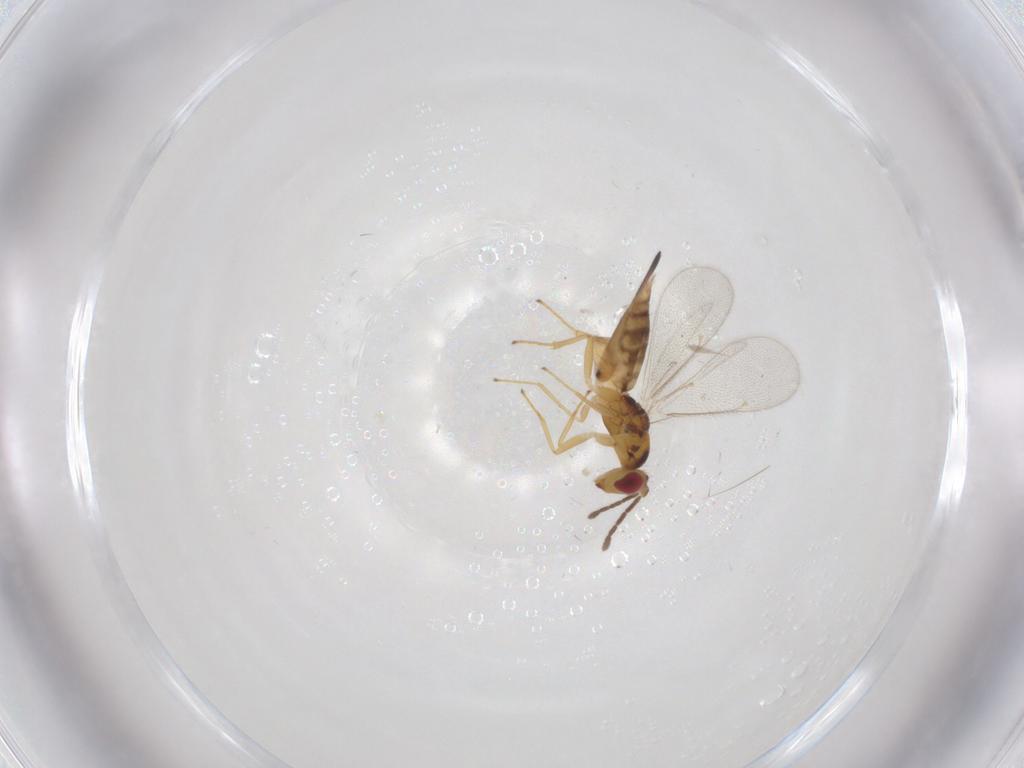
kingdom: Animalia
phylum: Arthropoda
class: Insecta
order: Hymenoptera
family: Eulophidae
